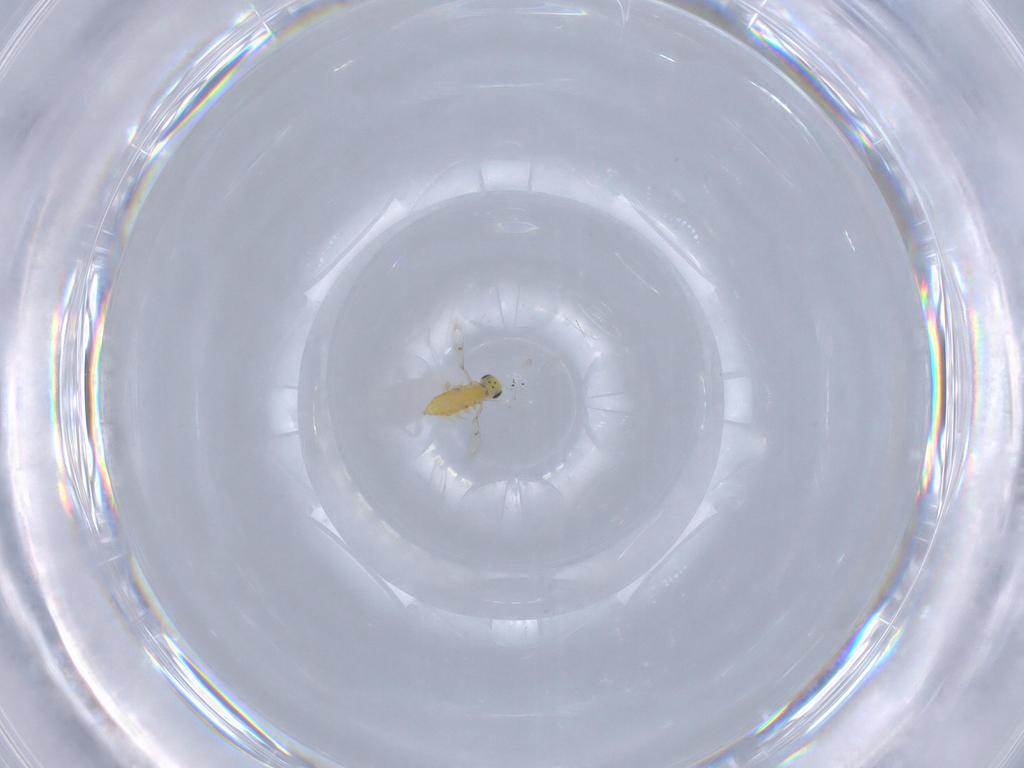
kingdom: Animalia
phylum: Arthropoda
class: Insecta
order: Hymenoptera
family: Trichogrammatidae
